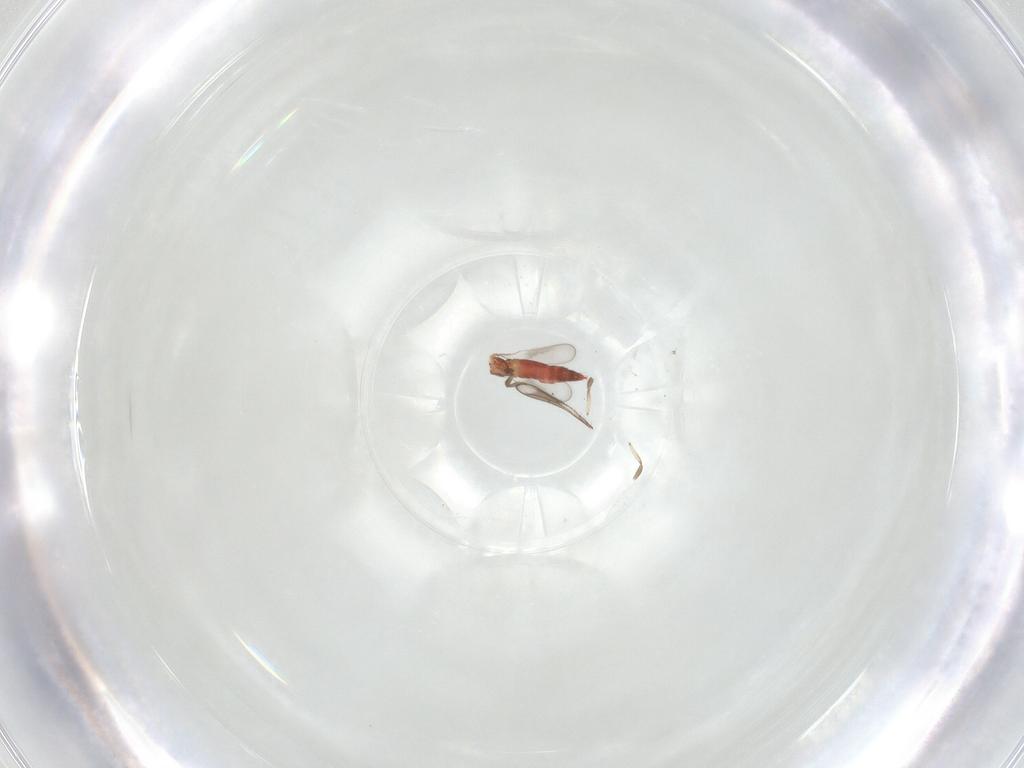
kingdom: Animalia
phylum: Arthropoda
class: Insecta
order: Thysanoptera
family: Aeolothripidae
